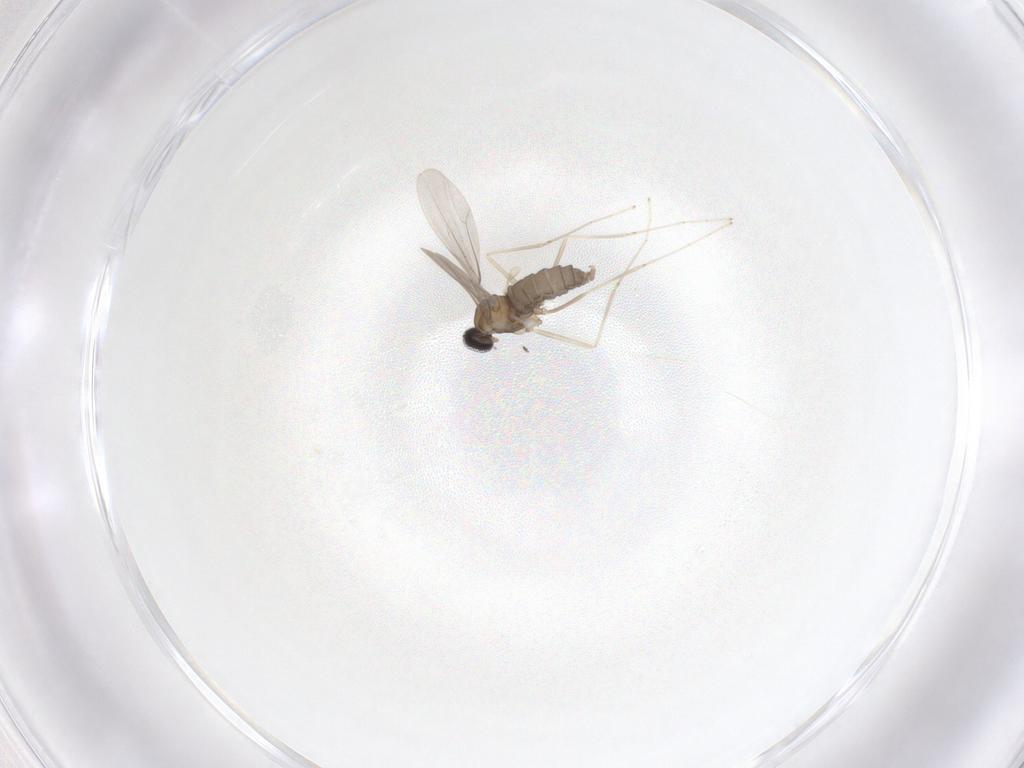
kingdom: Animalia
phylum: Arthropoda
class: Insecta
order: Diptera
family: Cecidomyiidae
